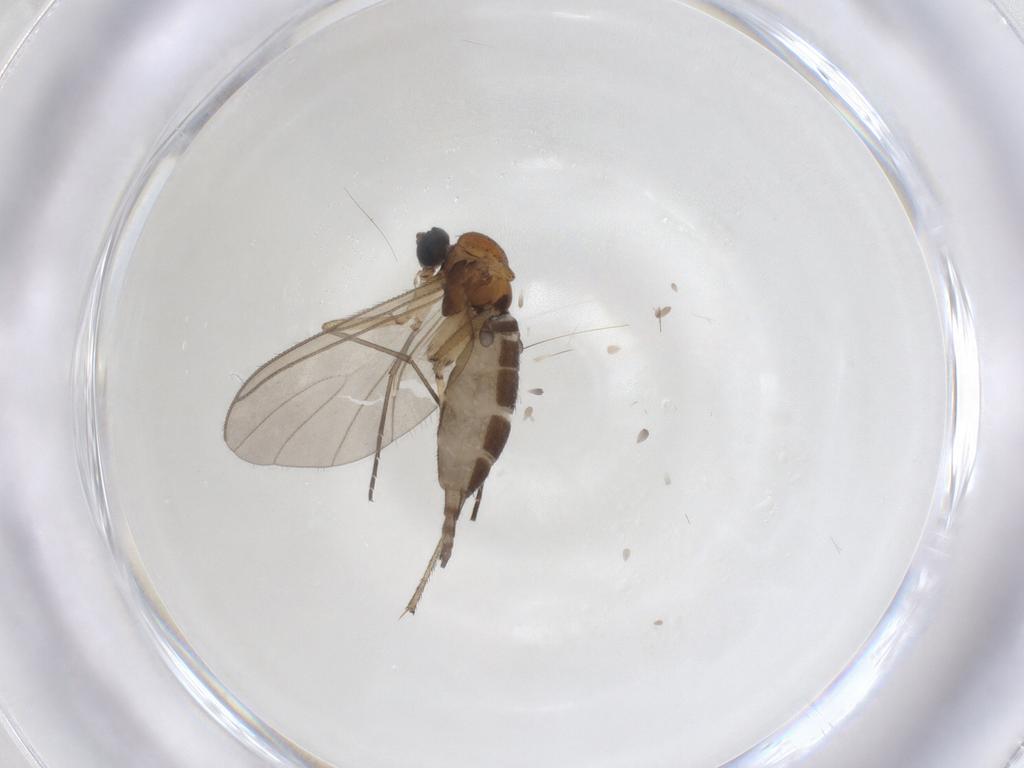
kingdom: Animalia
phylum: Arthropoda
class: Insecta
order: Diptera
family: Sciaridae
